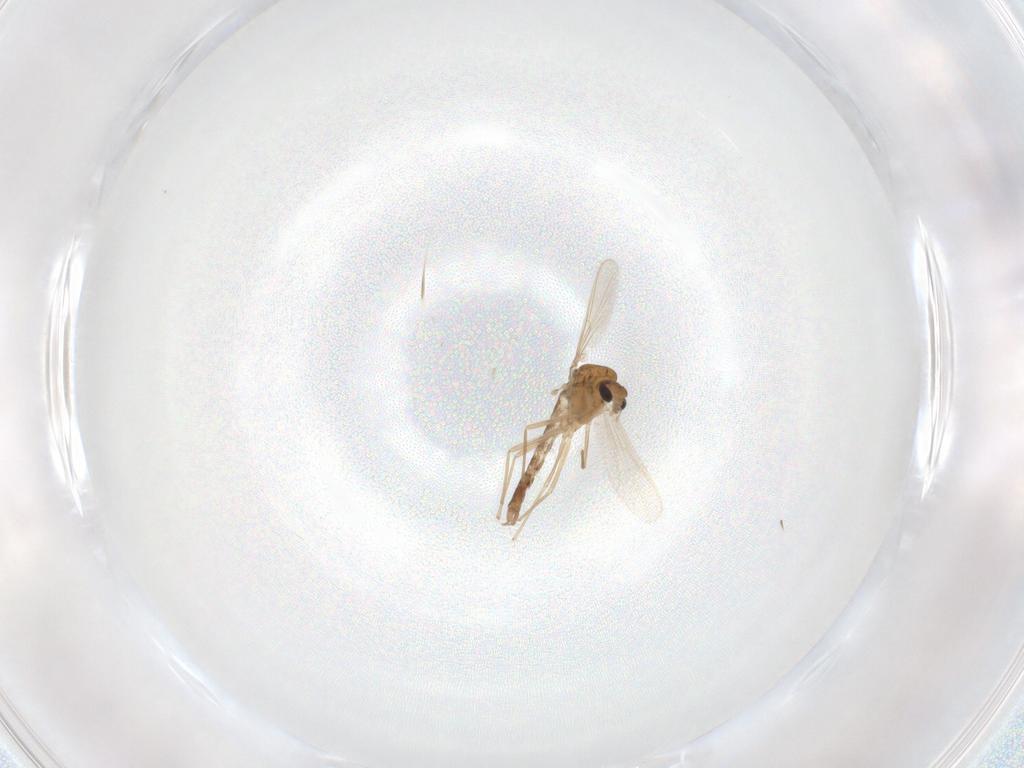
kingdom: Animalia
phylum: Arthropoda
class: Insecta
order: Diptera
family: Chironomidae
